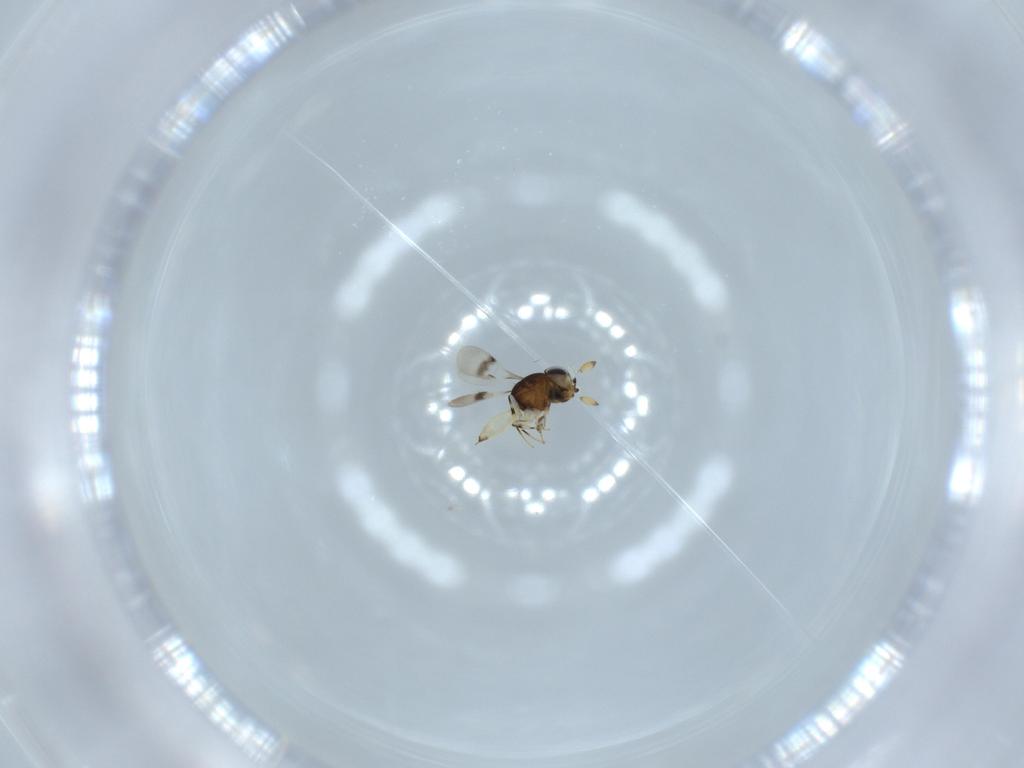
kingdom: Animalia
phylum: Arthropoda
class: Insecta
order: Hymenoptera
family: Scelionidae
